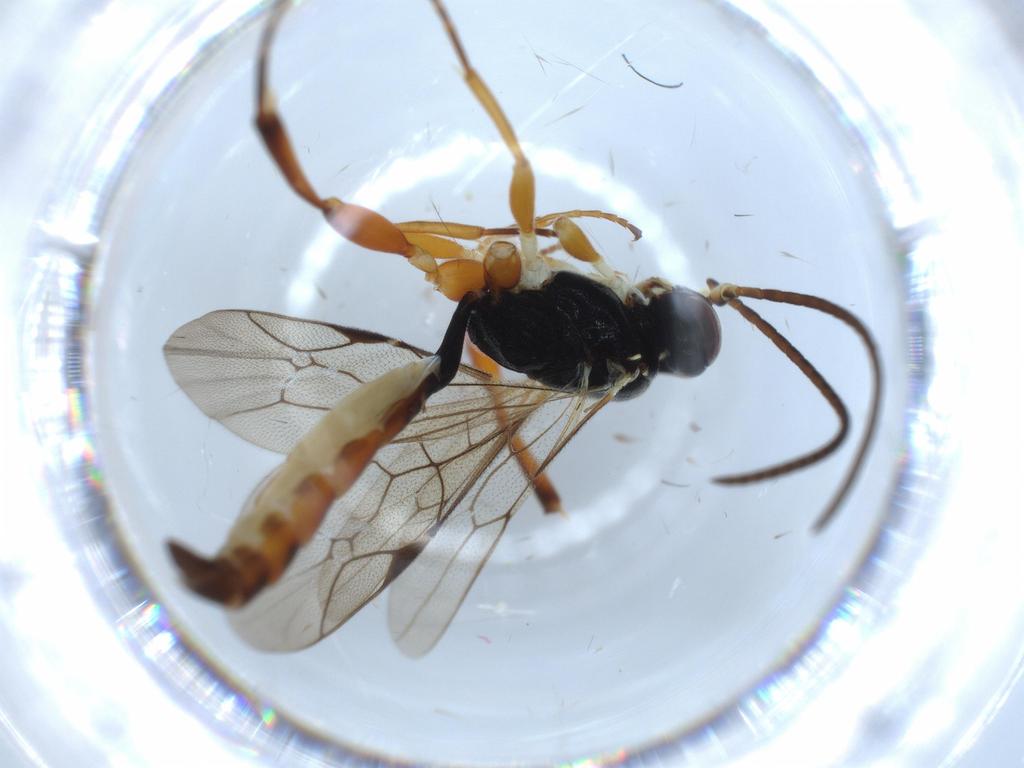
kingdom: Animalia
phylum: Arthropoda
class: Insecta
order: Hymenoptera
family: Ichneumonidae
